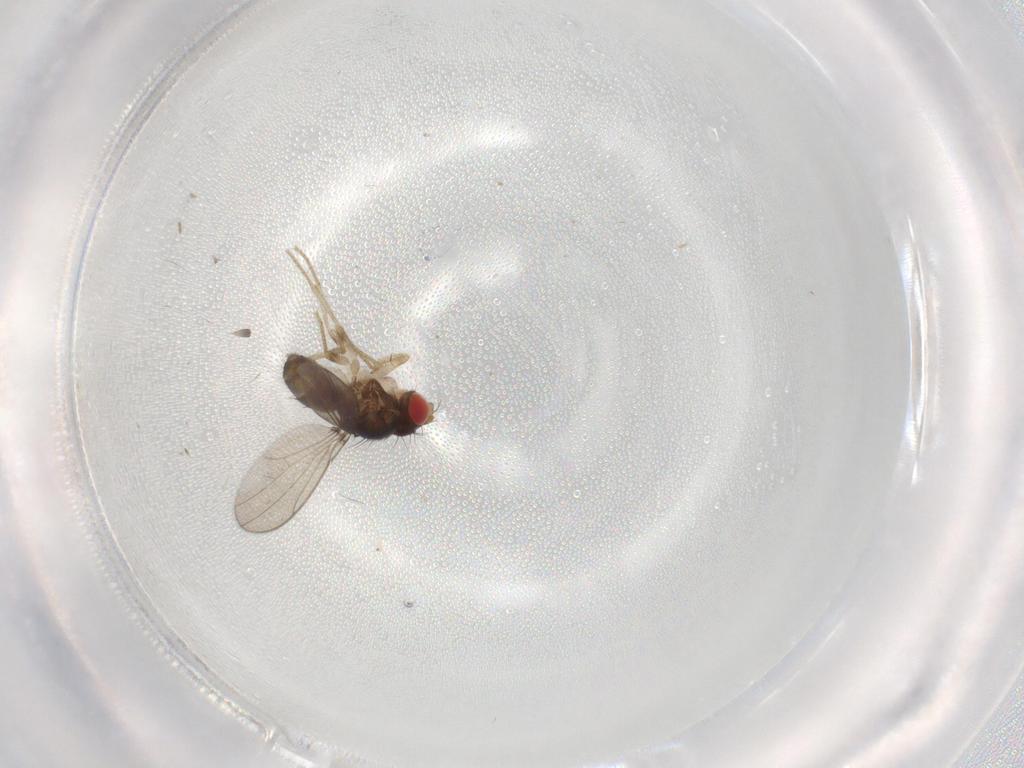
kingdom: Animalia
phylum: Arthropoda
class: Insecta
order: Diptera
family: Drosophilidae
